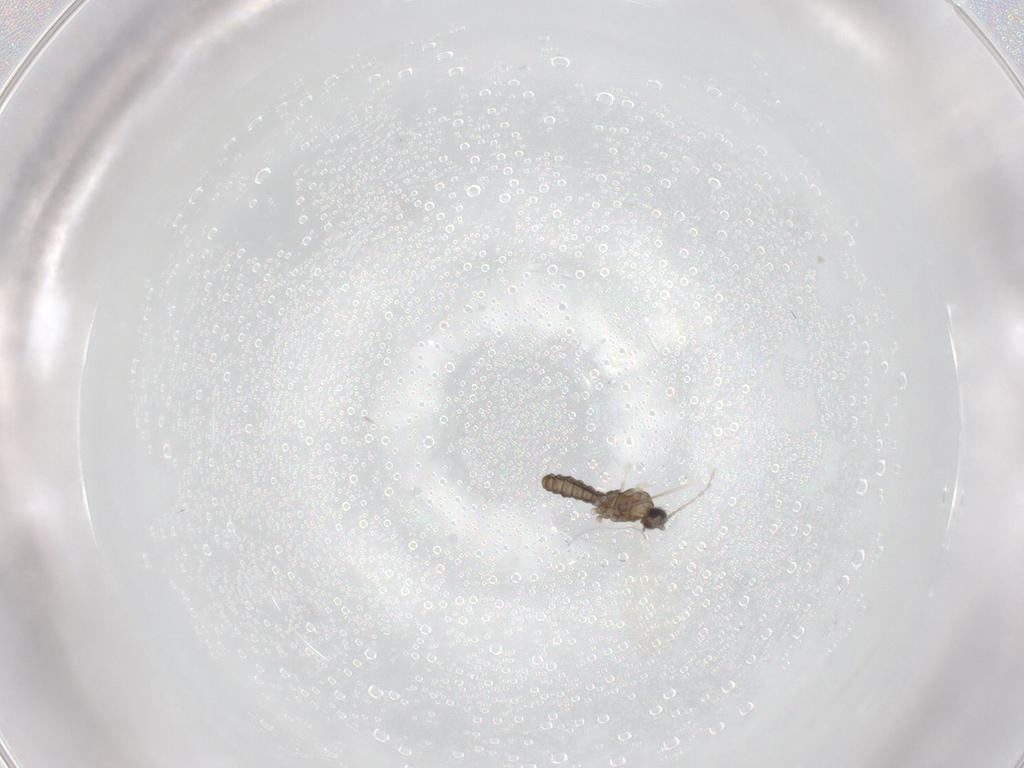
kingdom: Animalia
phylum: Arthropoda
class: Insecta
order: Diptera
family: Cecidomyiidae
